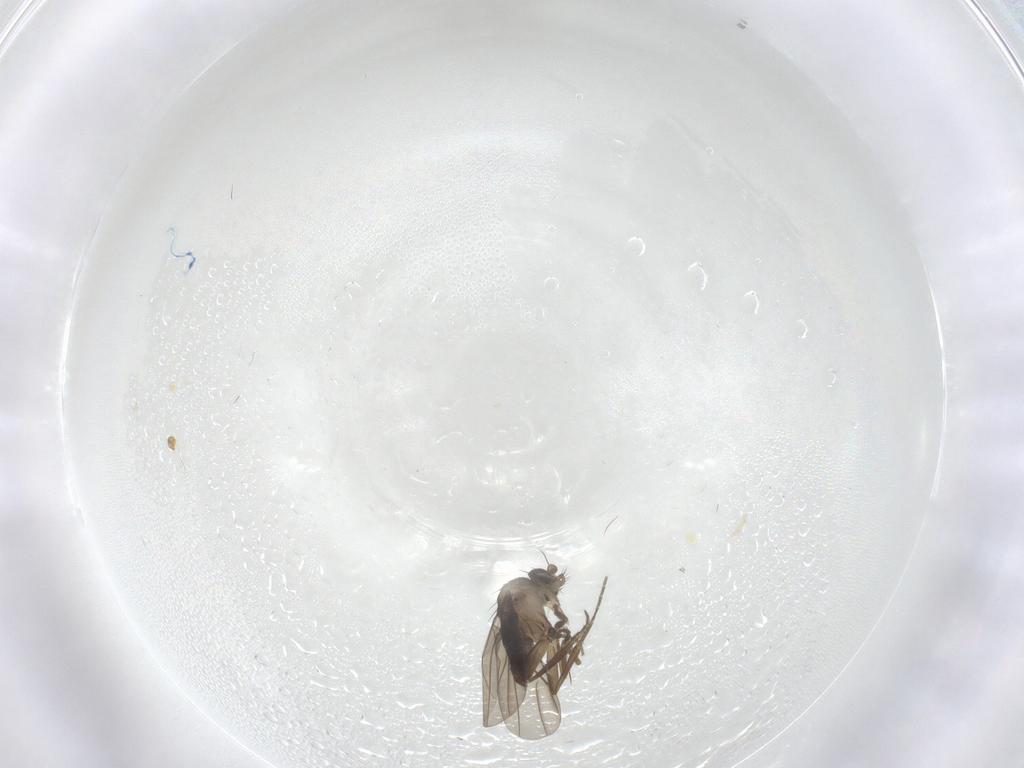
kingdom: Animalia
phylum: Arthropoda
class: Insecta
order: Diptera
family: Phoridae
